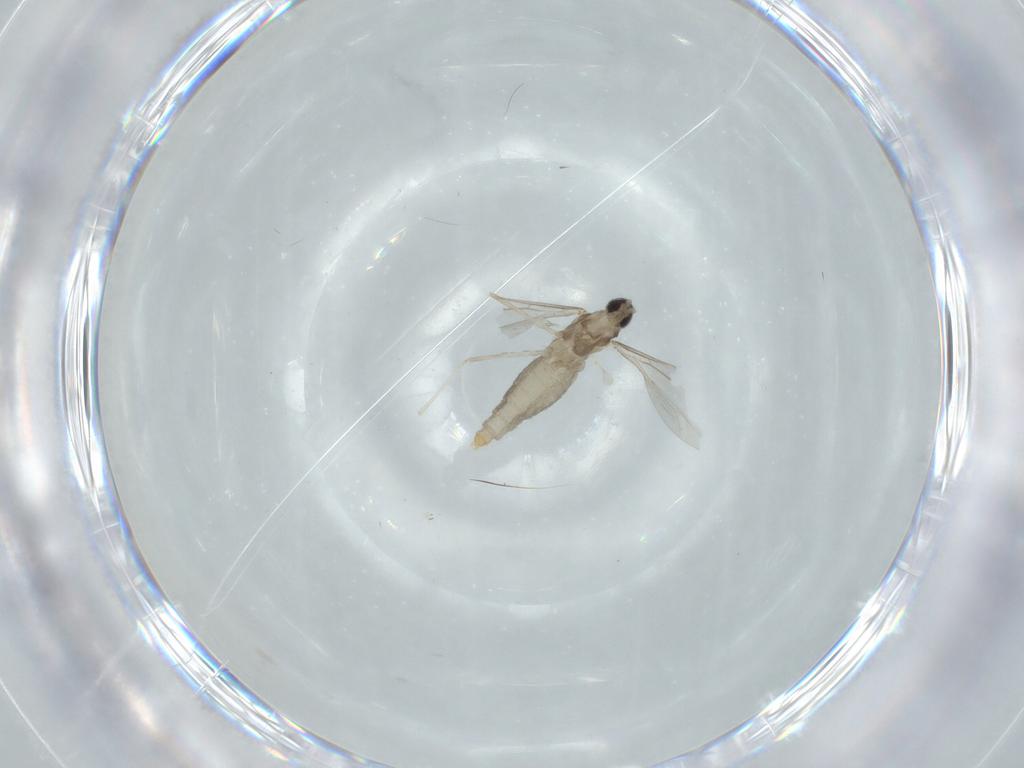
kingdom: Animalia
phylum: Arthropoda
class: Insecta
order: Diptera
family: Cecidomyiidae
